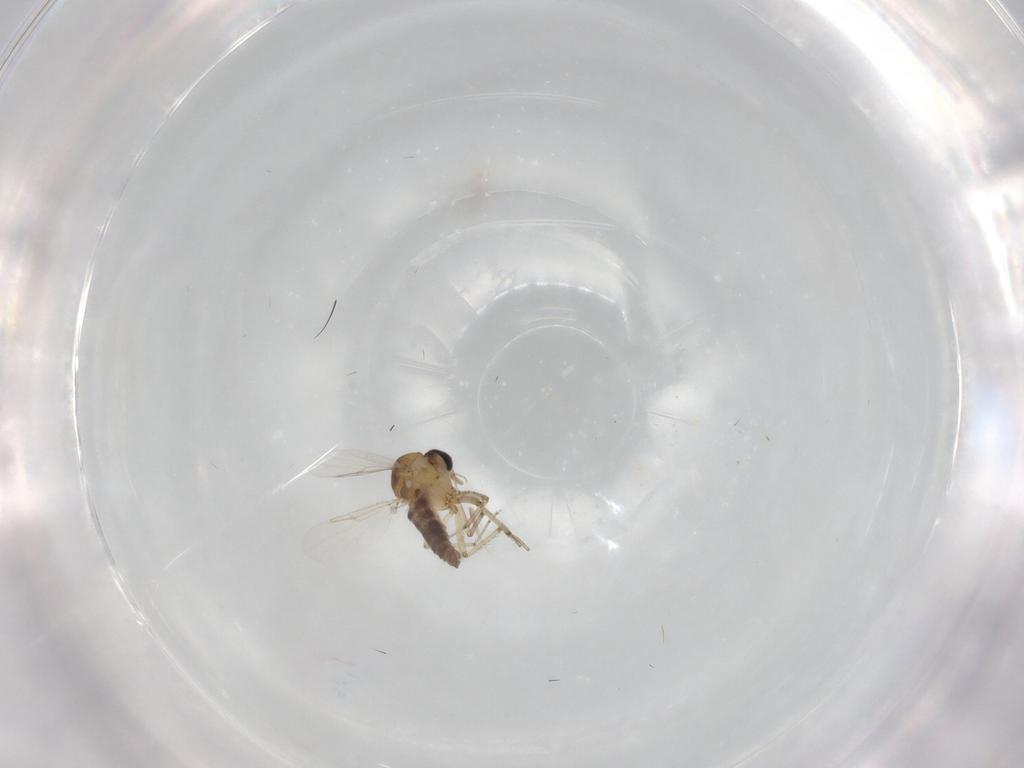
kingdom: Animalia
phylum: Arthropoda
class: Insecta
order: Diptera
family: Ceratopogonidae
